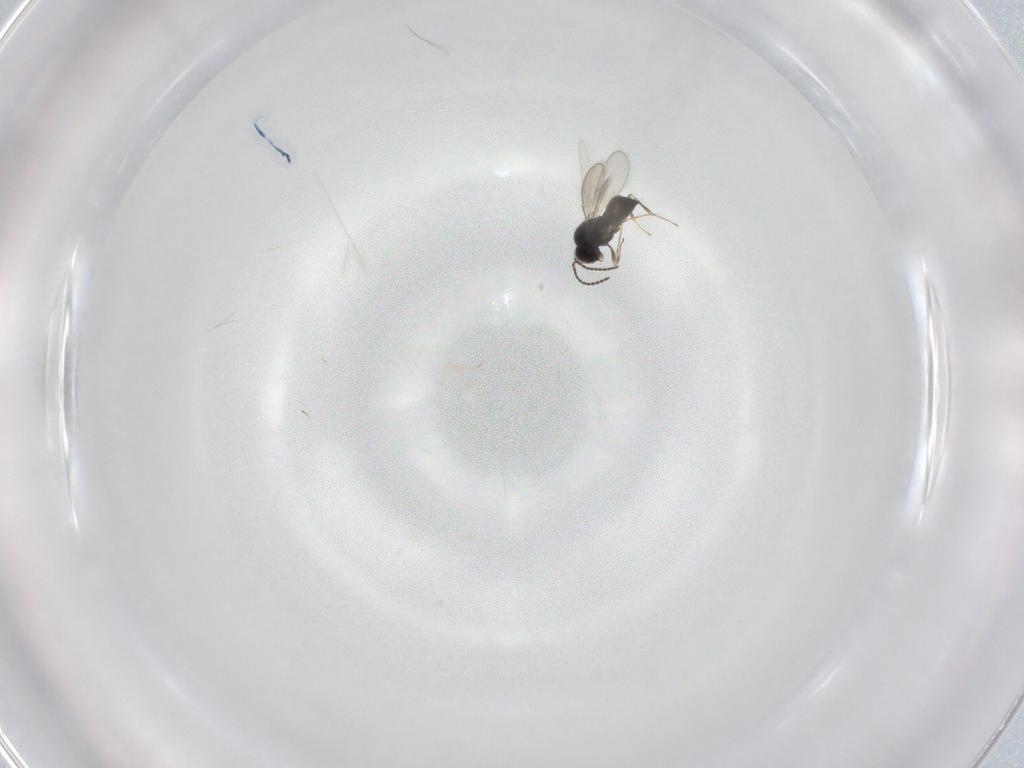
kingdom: Animalia
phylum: Arthropoda
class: Insecta
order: Hymenoptera
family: Scelionidae
